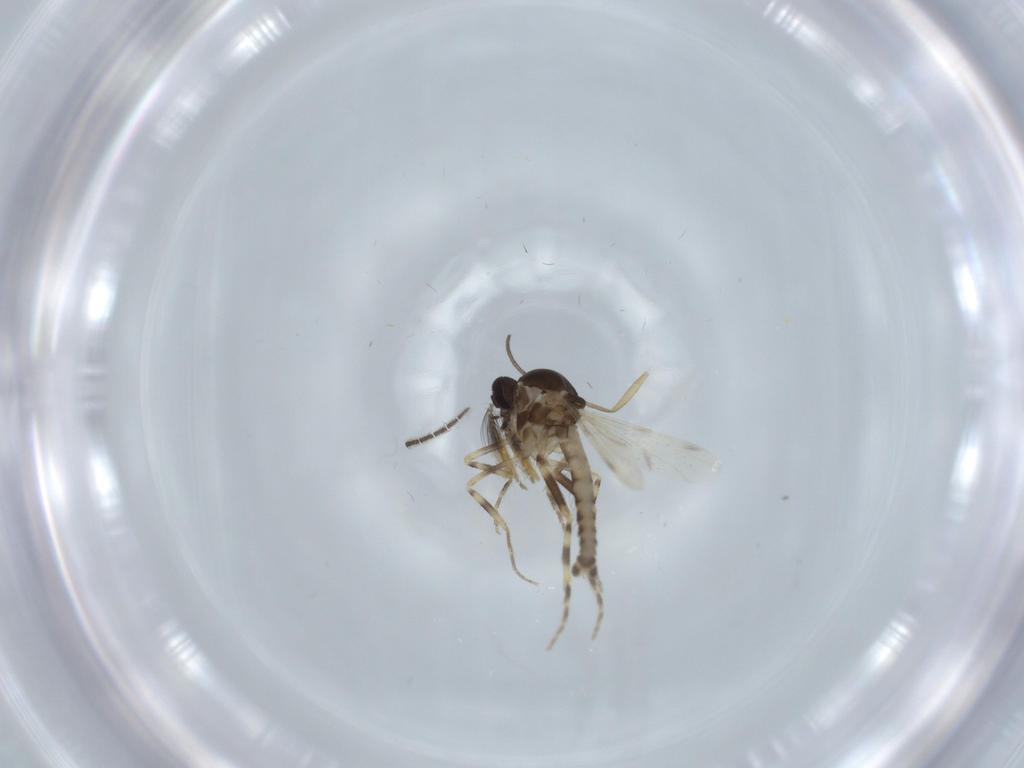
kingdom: Animalia
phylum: Arthropoda
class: Insecta
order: Diptera
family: Sciaridae
